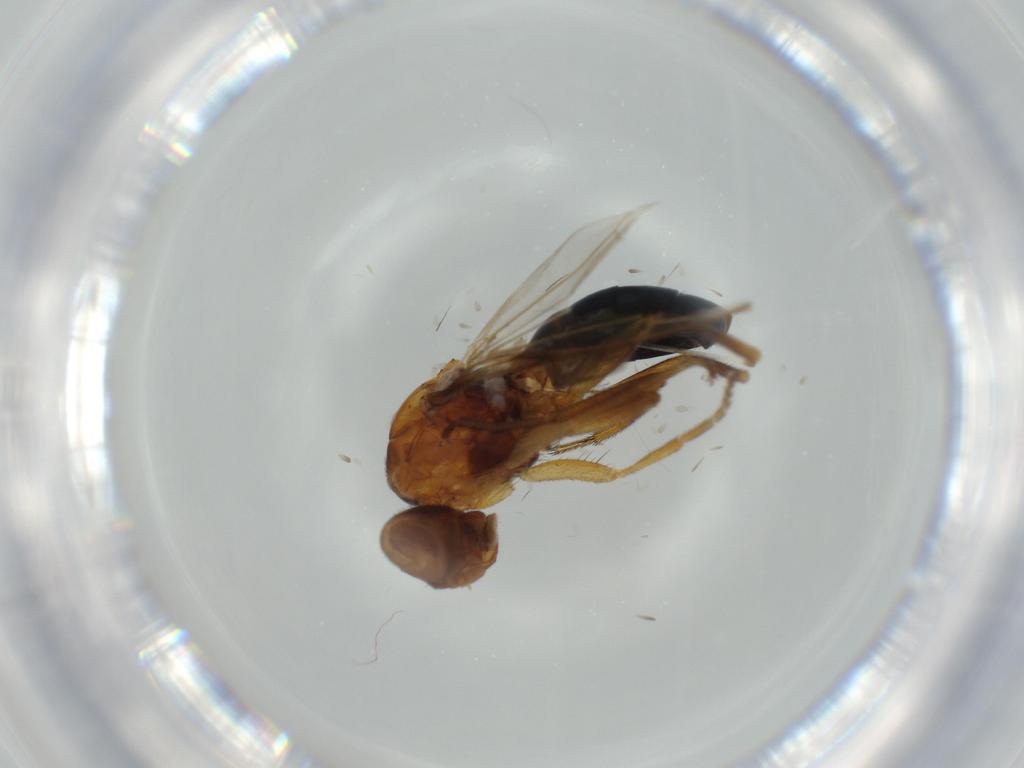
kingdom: Animalia
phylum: Arthropoda
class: Insecta
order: Diptera
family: Piophilidae
